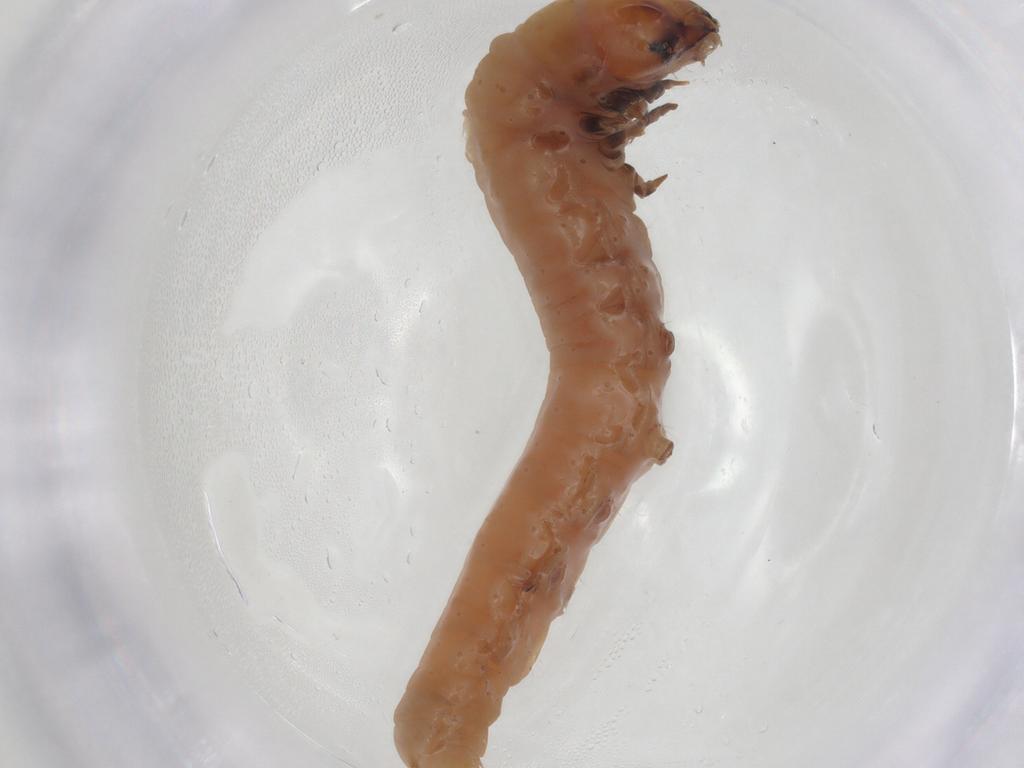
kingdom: Animalia
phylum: Arthropoda
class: Insecta
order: Lepidoptera
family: Gelechiidae
